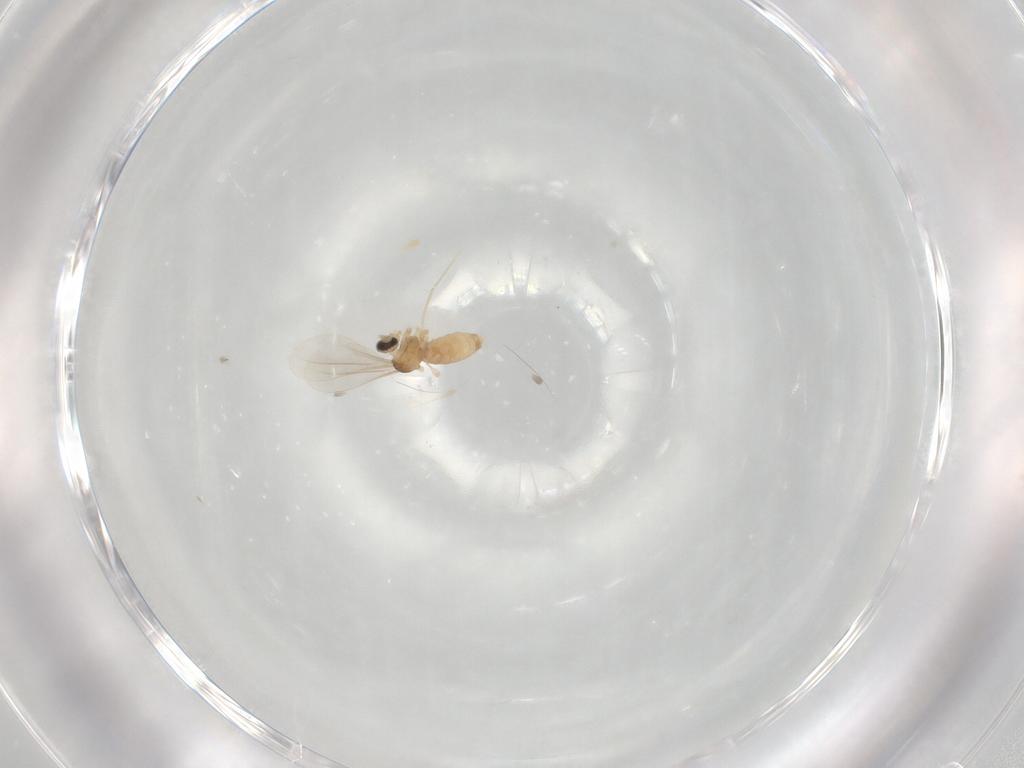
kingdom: Animalia
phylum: Arthropoda
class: Insecta
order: Diptera
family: Cecidomyiidae
